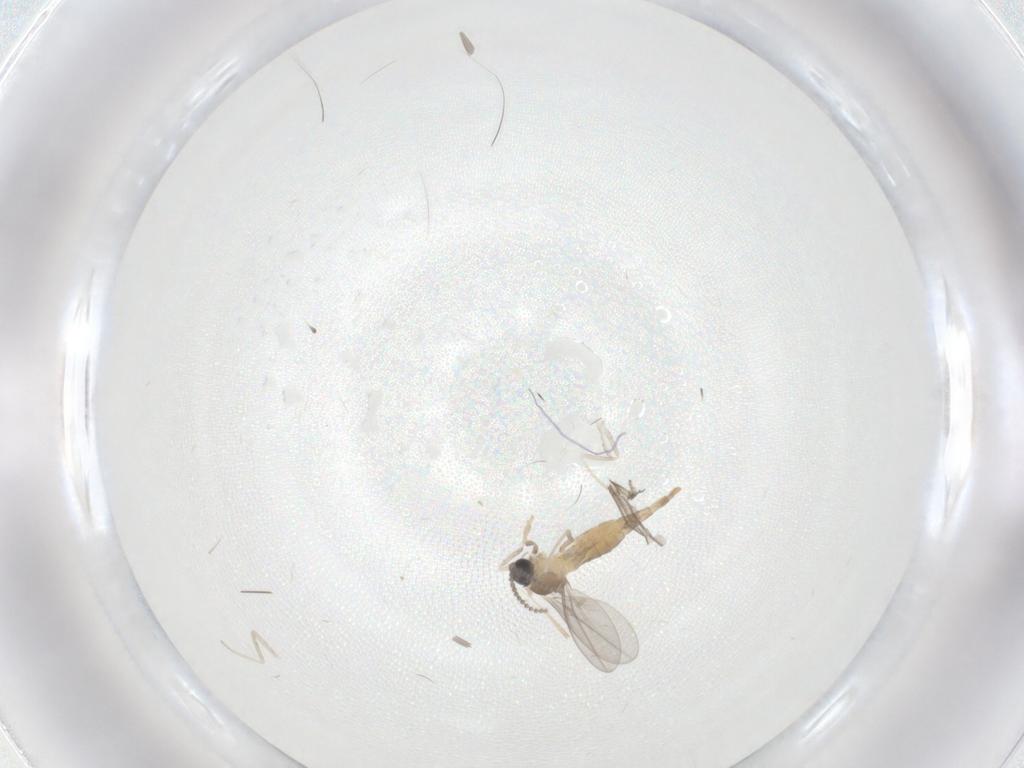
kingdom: Animalia
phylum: Arthropoda
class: Insecta
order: Diptera
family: Cecidomyiidae
